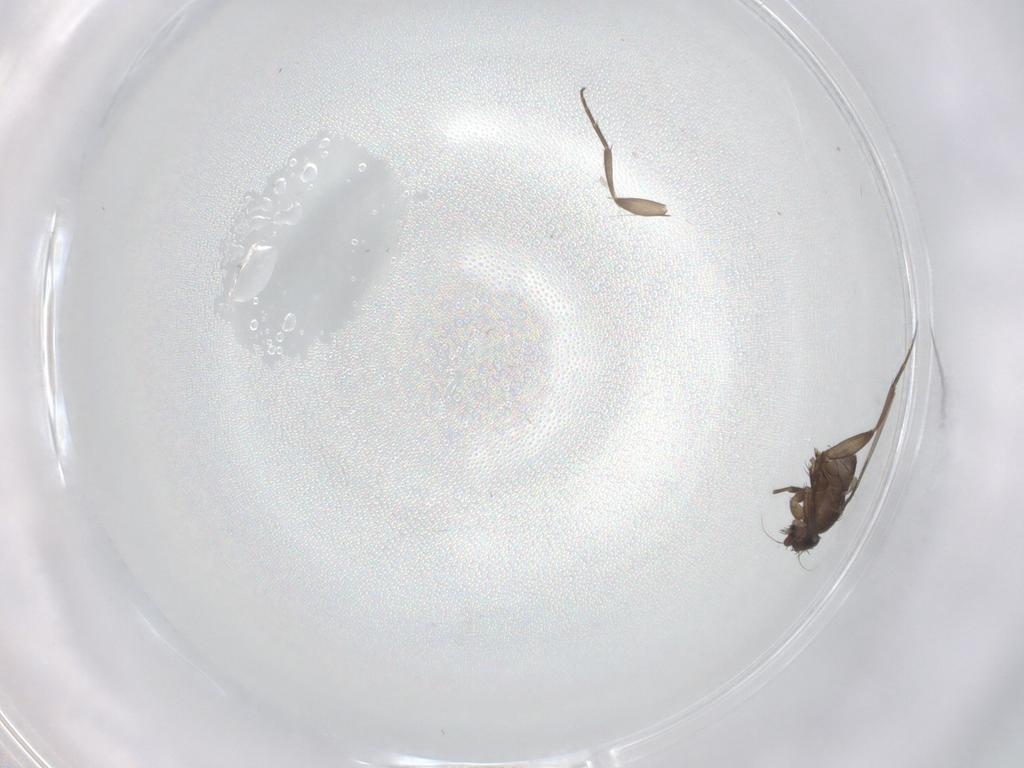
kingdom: Animalia
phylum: Arthropoda
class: Insecta
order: Diptera
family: Phoridae
